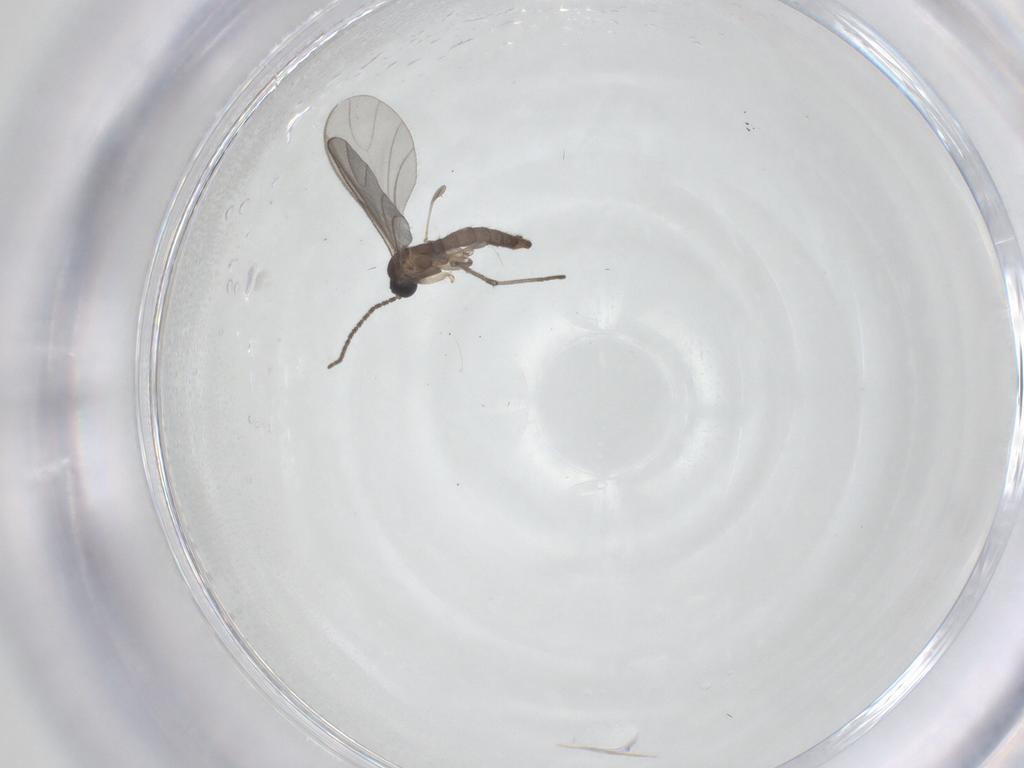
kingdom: Animalia
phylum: Arthropoda
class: Insecta
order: Diptera
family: Sciaridae
